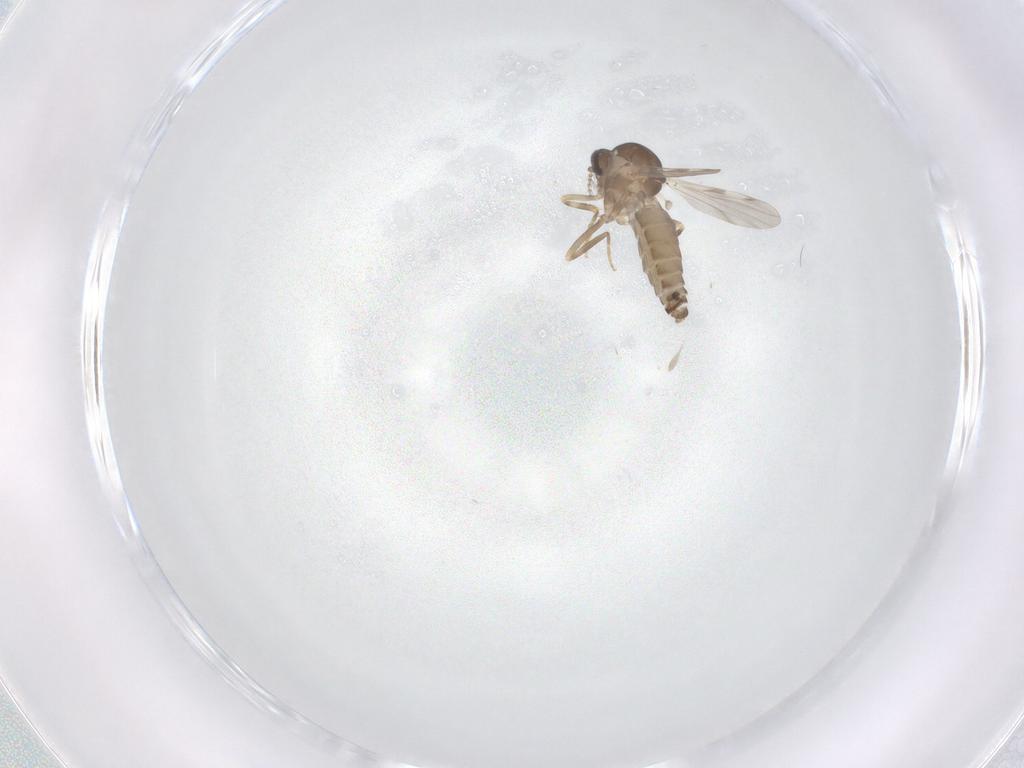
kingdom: Animalia
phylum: Arthropoda
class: Insecta
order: Diptera
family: Ceratopogonidae
